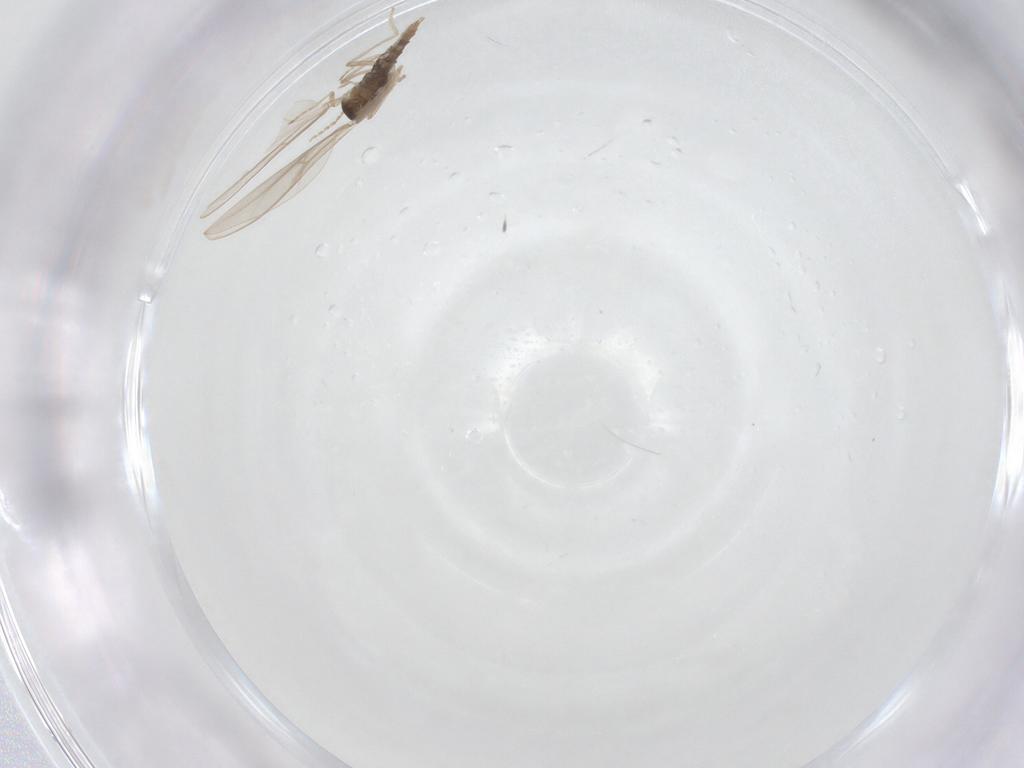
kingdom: Animalia
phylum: Arthropoda
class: Insecta
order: Diptera
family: Cecidomyiidae
